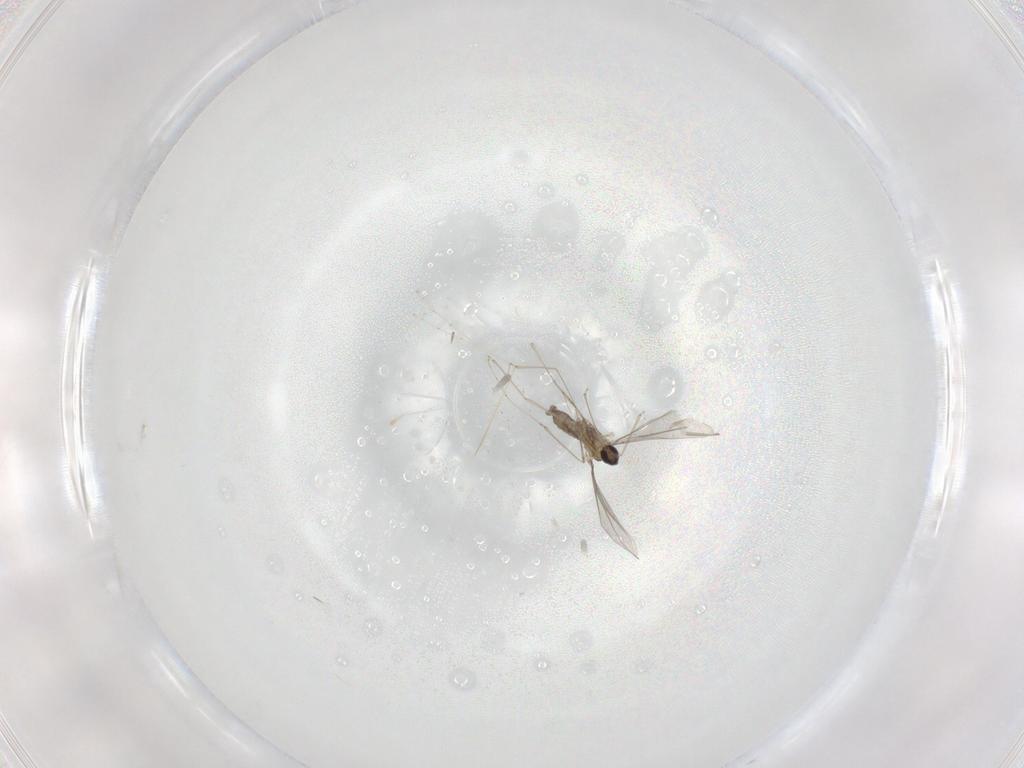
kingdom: Animalia
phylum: Arthropoda
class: Insecta
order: Diptera
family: Cecidomyiidae
